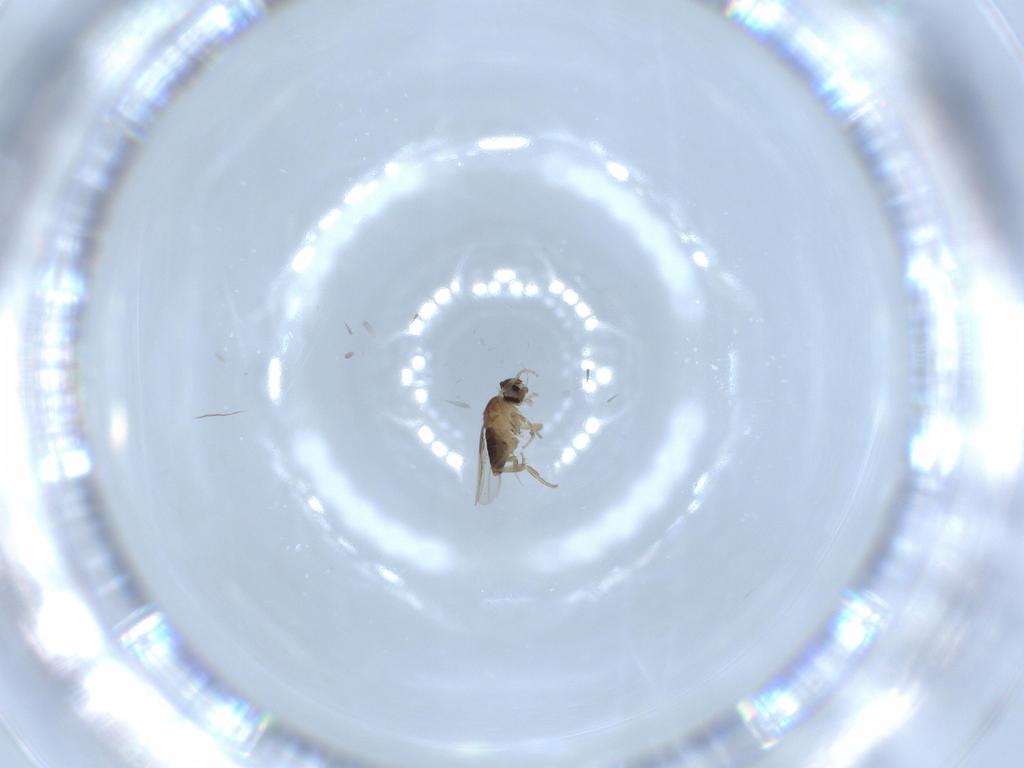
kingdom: Animalia
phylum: Arthropoda
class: Insecta
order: Diptera
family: Phoridae
